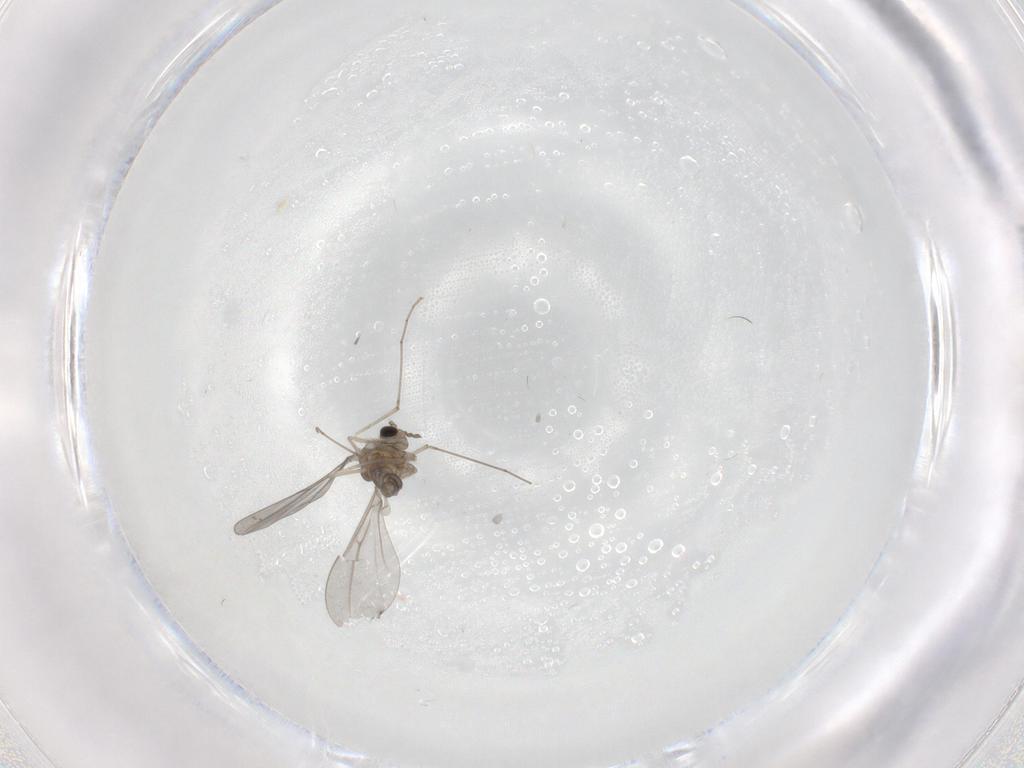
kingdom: Animalia
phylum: Arthropoda
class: Insecta
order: Diptera
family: Cecidomyiidae
